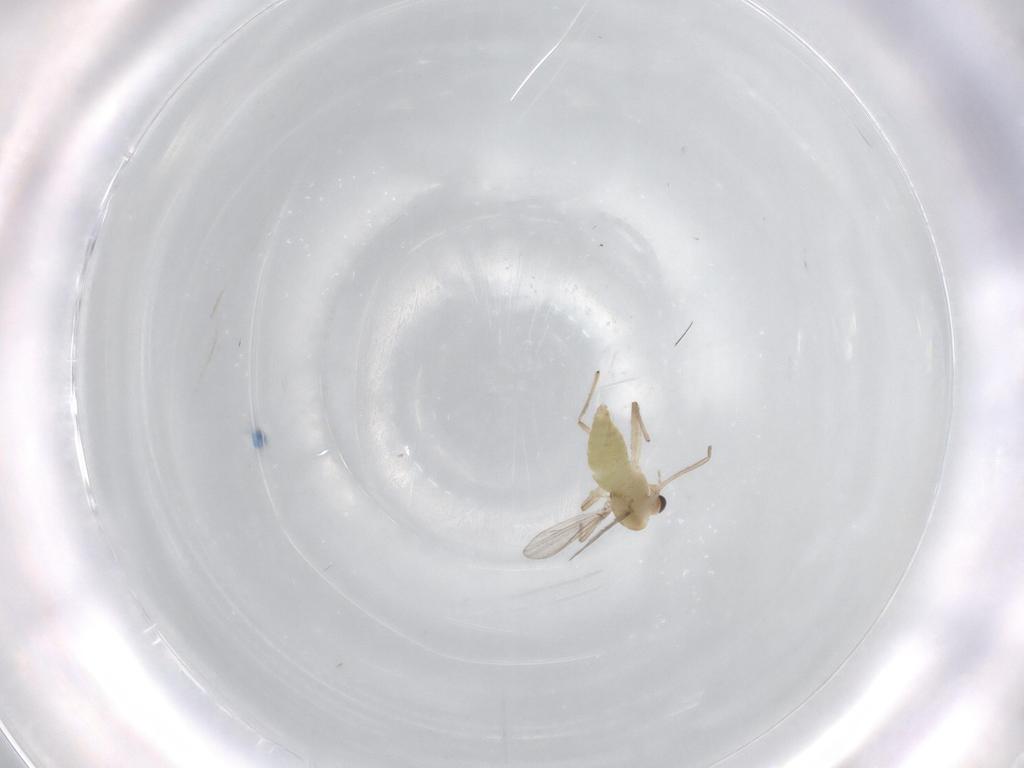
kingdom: Animalia
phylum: Arthropoda
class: Insecta
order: Diptera
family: Chironomidae
